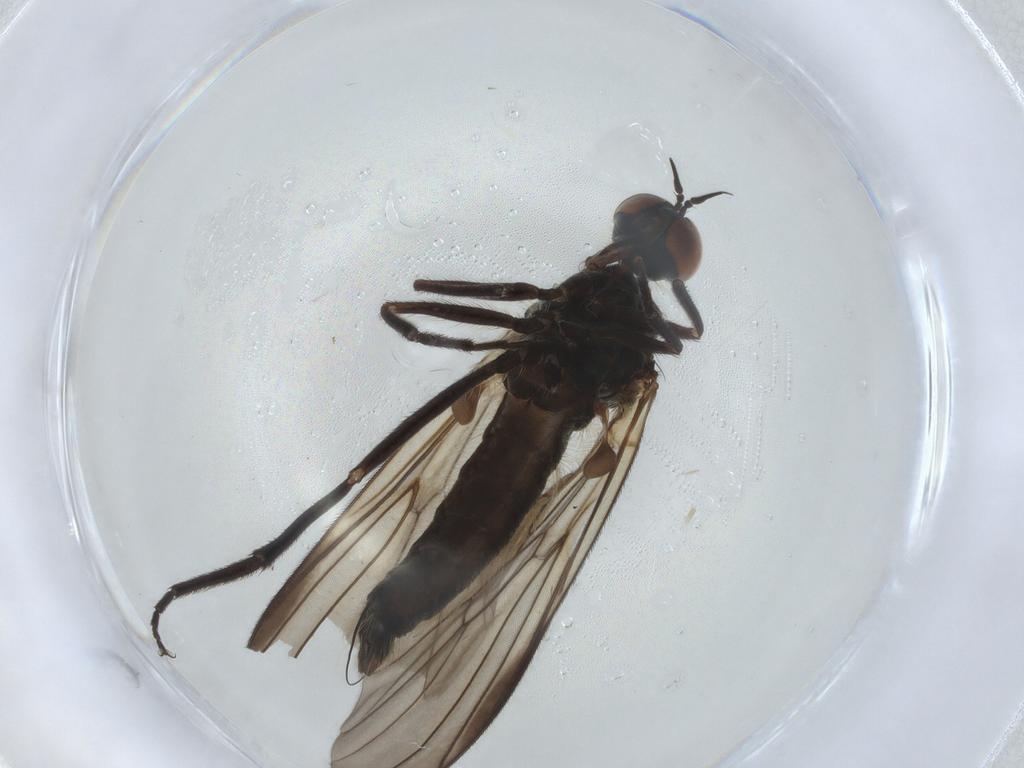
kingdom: Animalia
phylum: Arthropoda
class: Insecta
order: Diptera
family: Empididae
